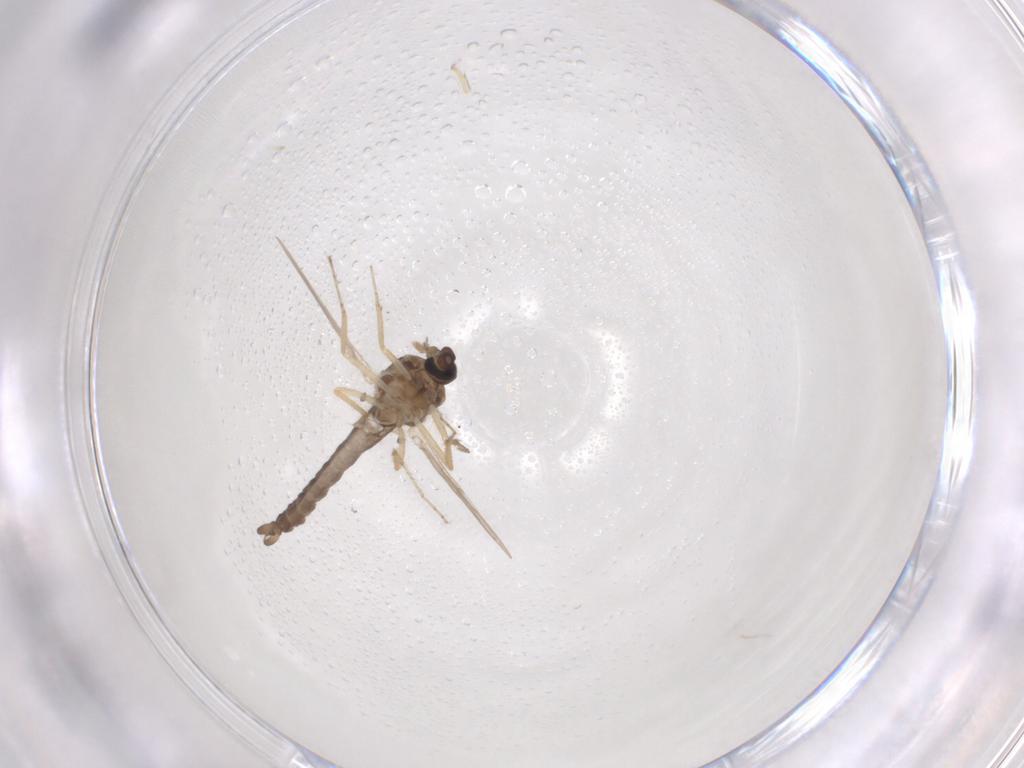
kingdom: Animalia
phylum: Arthropoda
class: Insecta
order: Diptera
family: Ceratopogonidae
